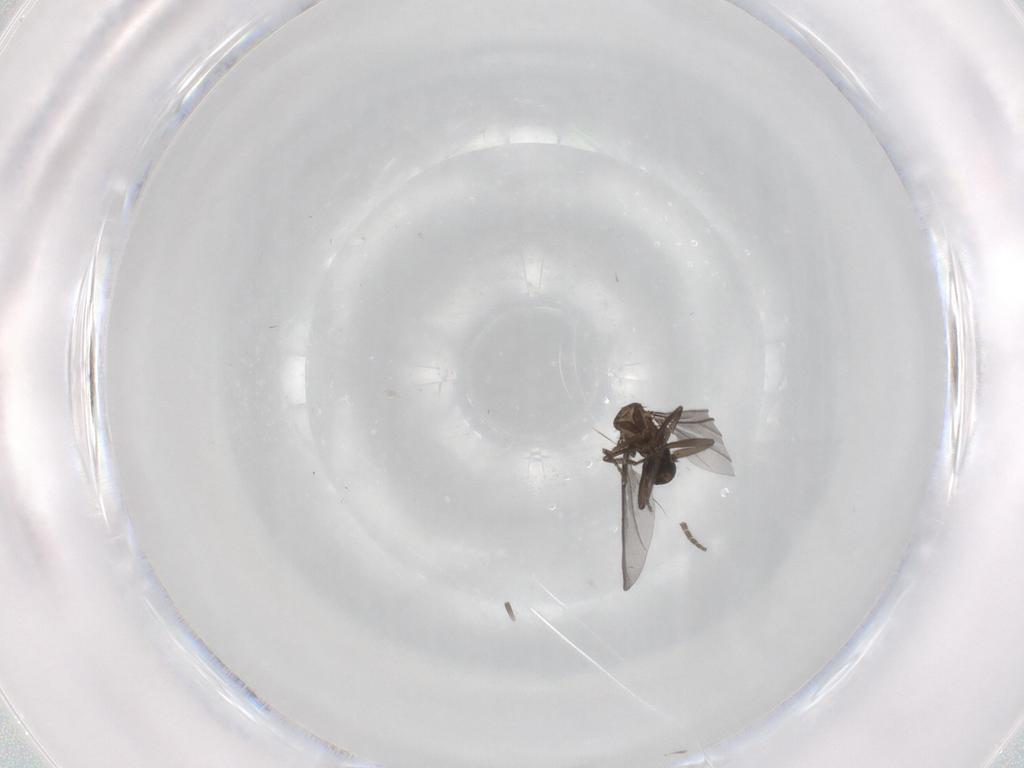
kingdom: Animalia
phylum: Arthropoda
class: Insecta
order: Diptera
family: Phoridae
